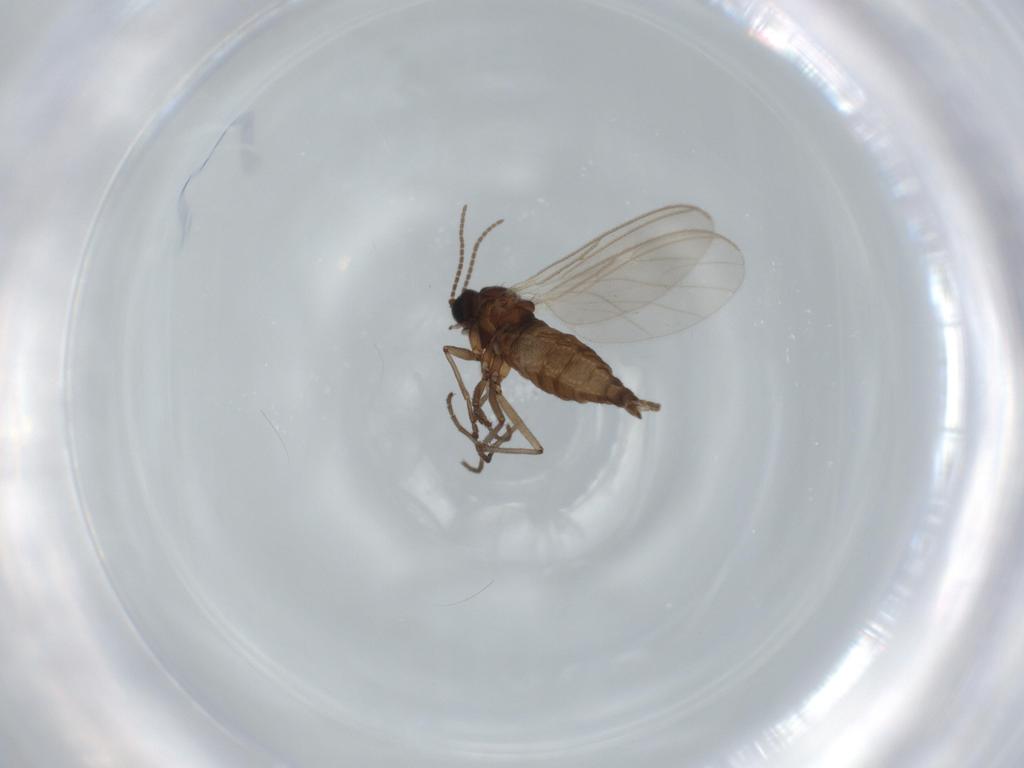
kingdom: Animalia
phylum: Arthropoda
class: Insecta
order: Diptera
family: Sciaridae
